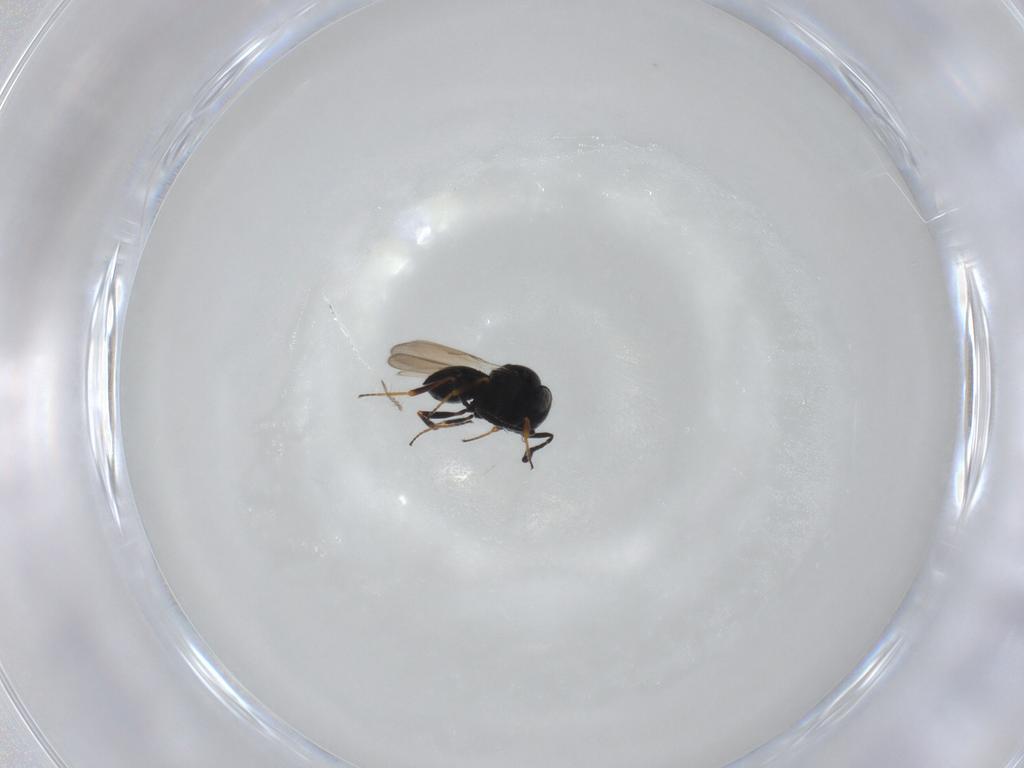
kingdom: Animalia
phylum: Arthropoda
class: Insecta
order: Hymenoptera
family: Scelionidae
